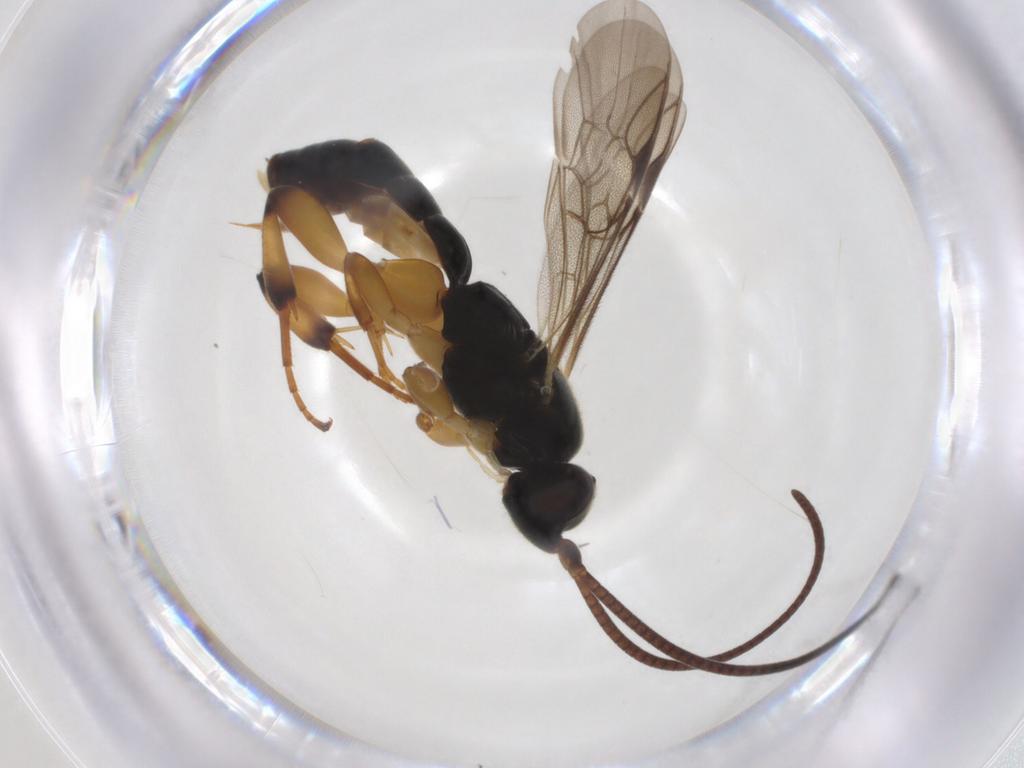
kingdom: Animalia
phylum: Arthropoda
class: Insecta
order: Hymenoptera
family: Ichneumonidae
